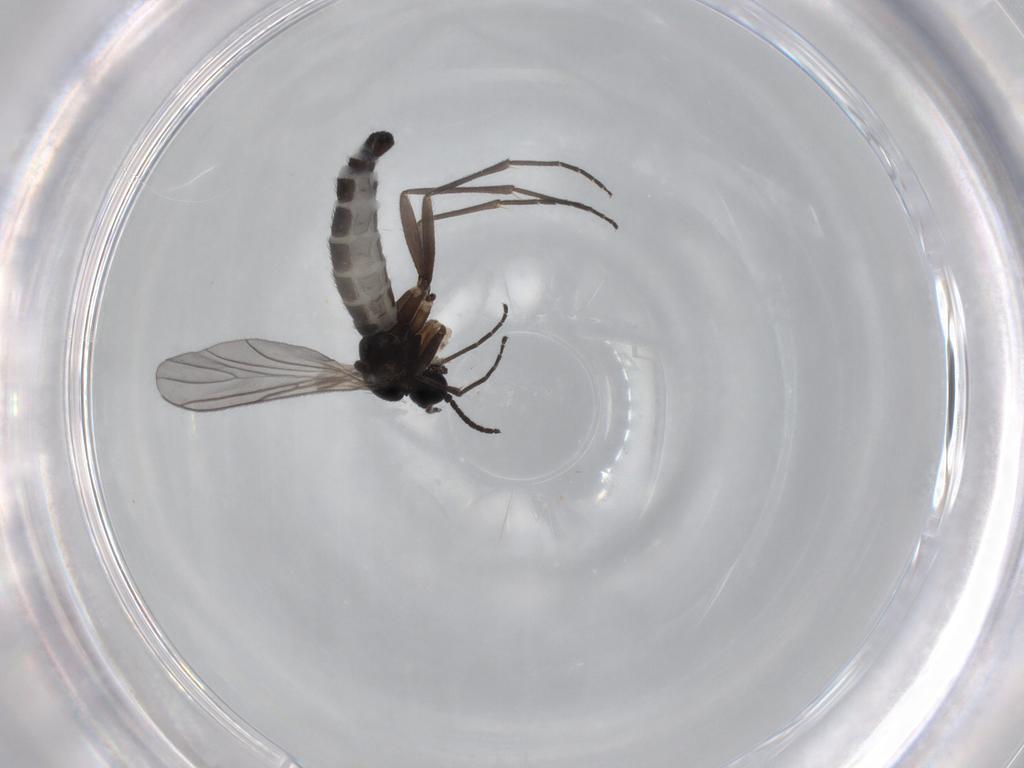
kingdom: Animalia
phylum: Arthropoda
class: Insecta
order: Diptera
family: Sciaridae
